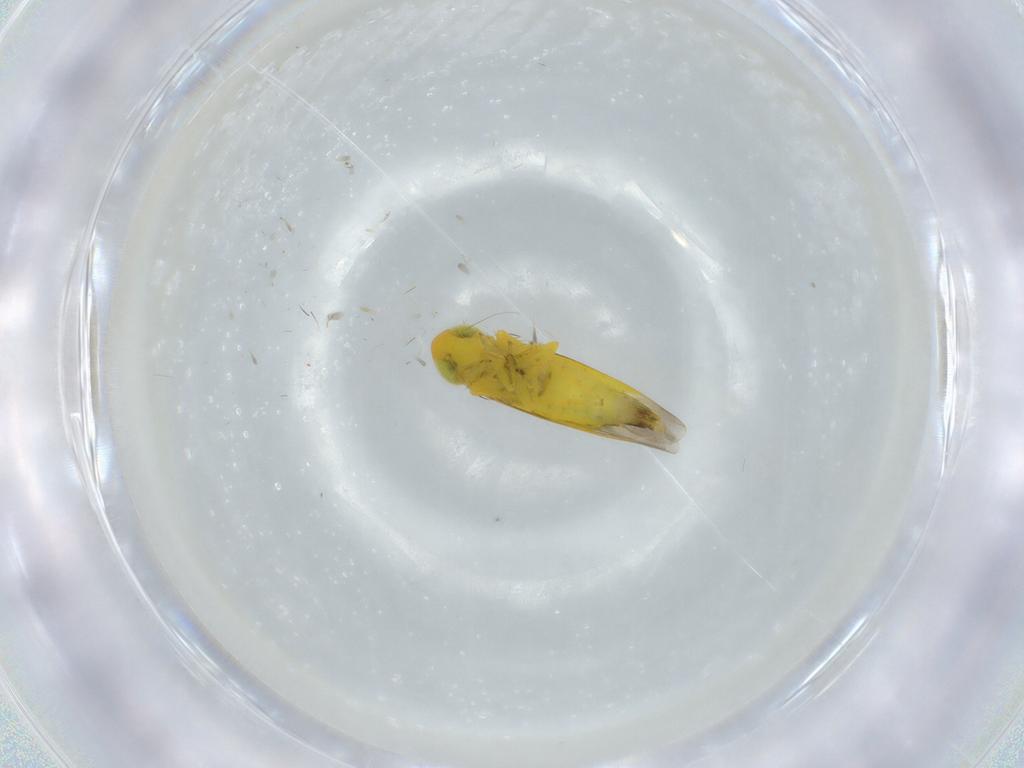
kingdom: Animalia
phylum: Arthropoda
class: Insecta
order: Hemiptera
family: Cicadellidae
